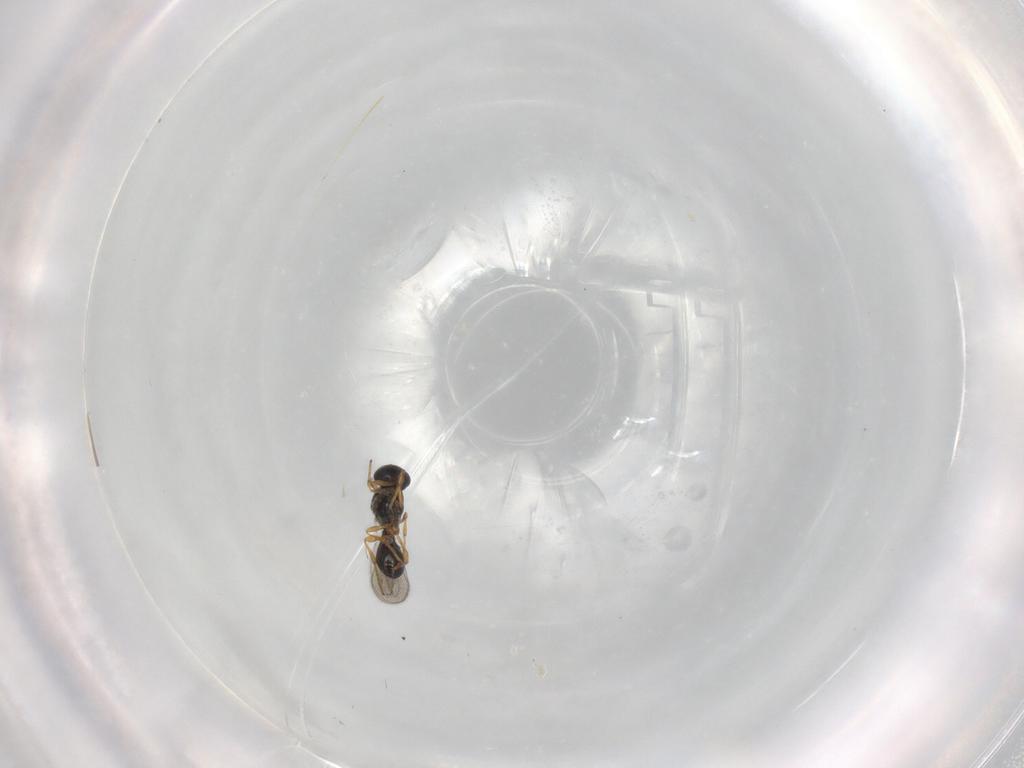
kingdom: Animalia
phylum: Arthropoda
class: Insecta
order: Hymenoptera
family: Platygastridae
